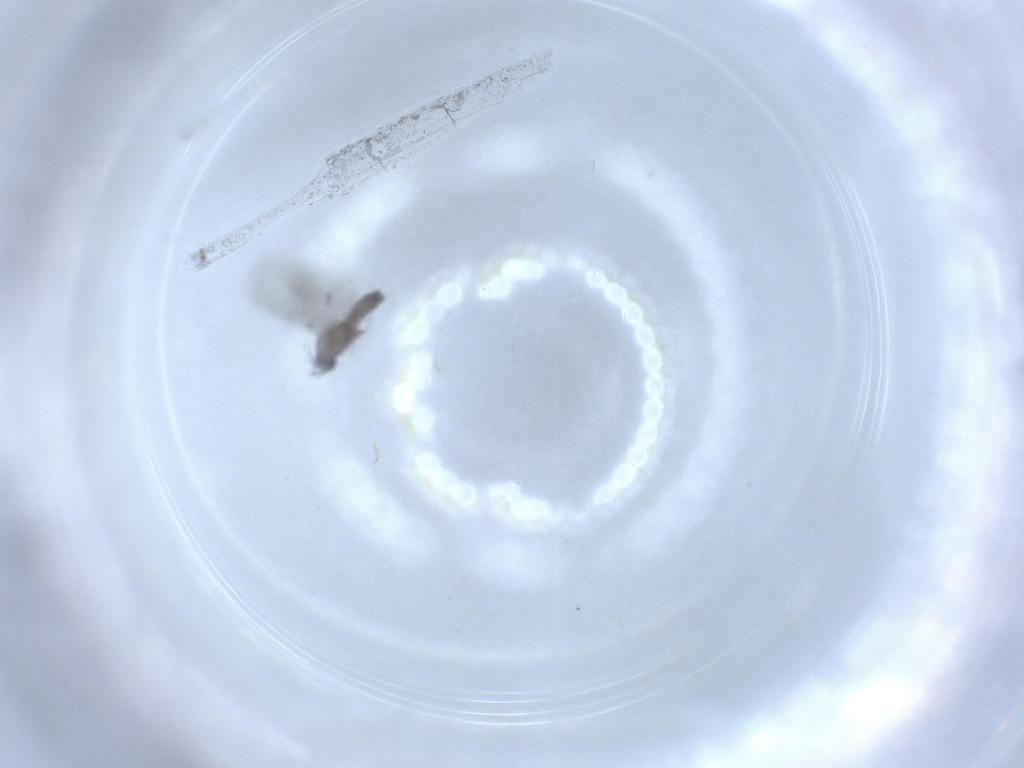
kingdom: Animalia
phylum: Arthropoda
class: Insecta
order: Diptera
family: Sciaridae
